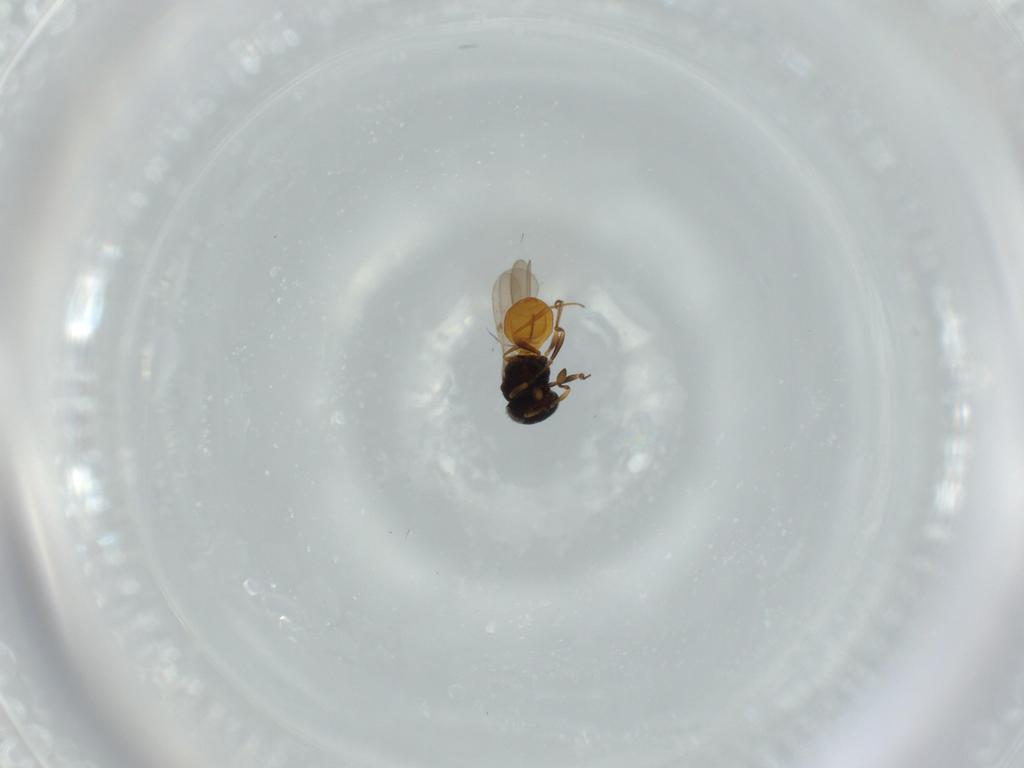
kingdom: Animalia
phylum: Arthropoda
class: Insecta
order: Hymenoptera
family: Scelionidae
